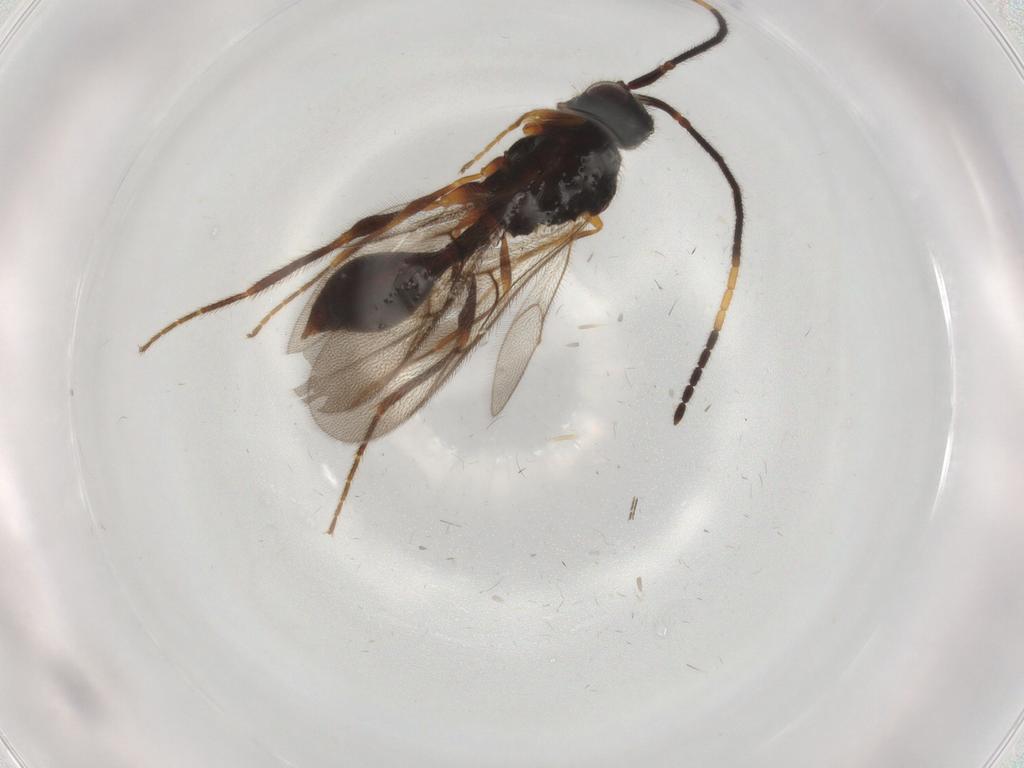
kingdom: Animalia
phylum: Arthropoda
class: Insecta
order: Hymenoptera
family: Diapriidae
